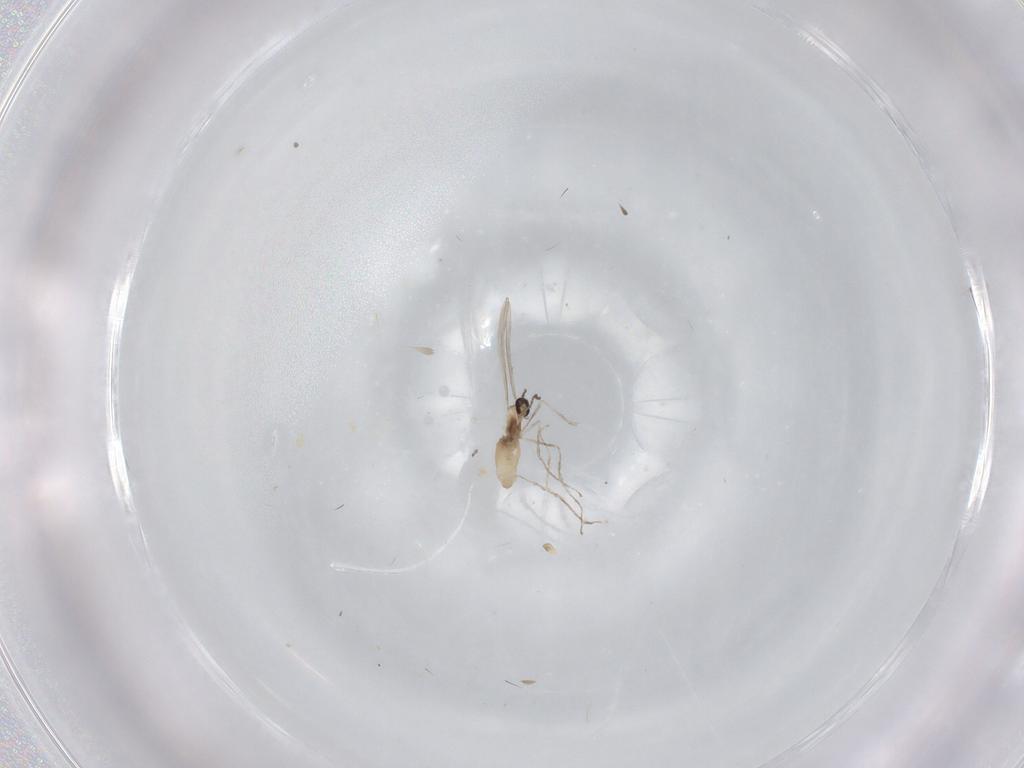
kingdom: Animalia
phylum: Arthropoda
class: Insecta
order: Diptera
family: Cecidomyiidae
